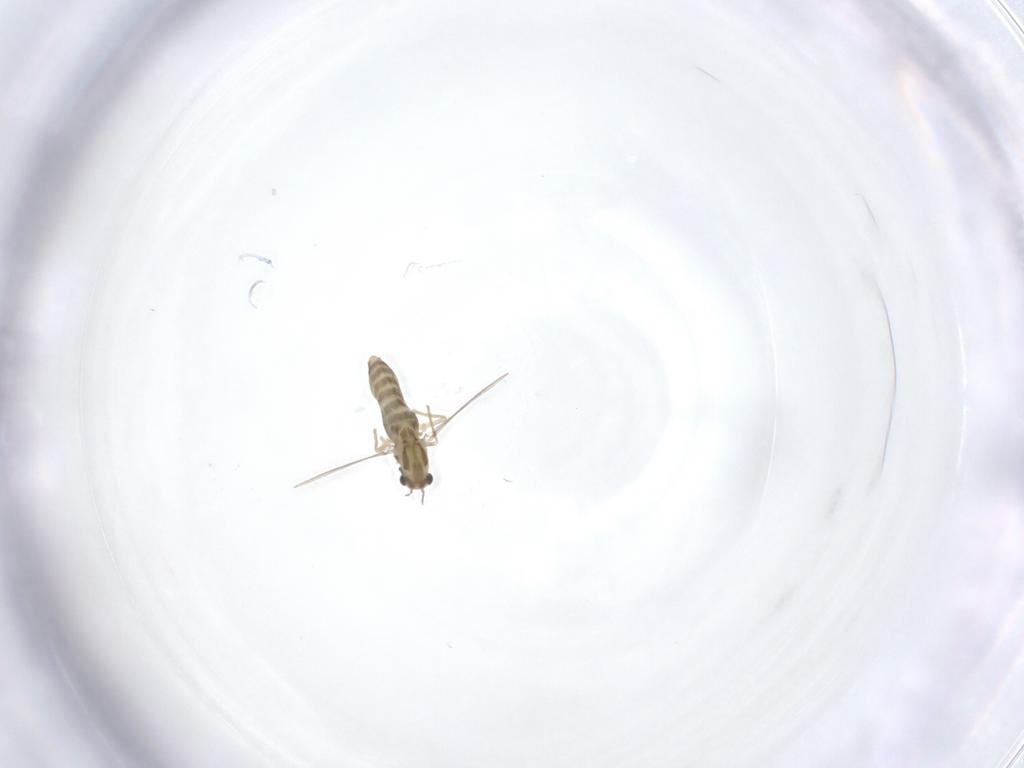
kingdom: Animalia
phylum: Arthropoda
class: Insecta
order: Diptera
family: Chironomidae
